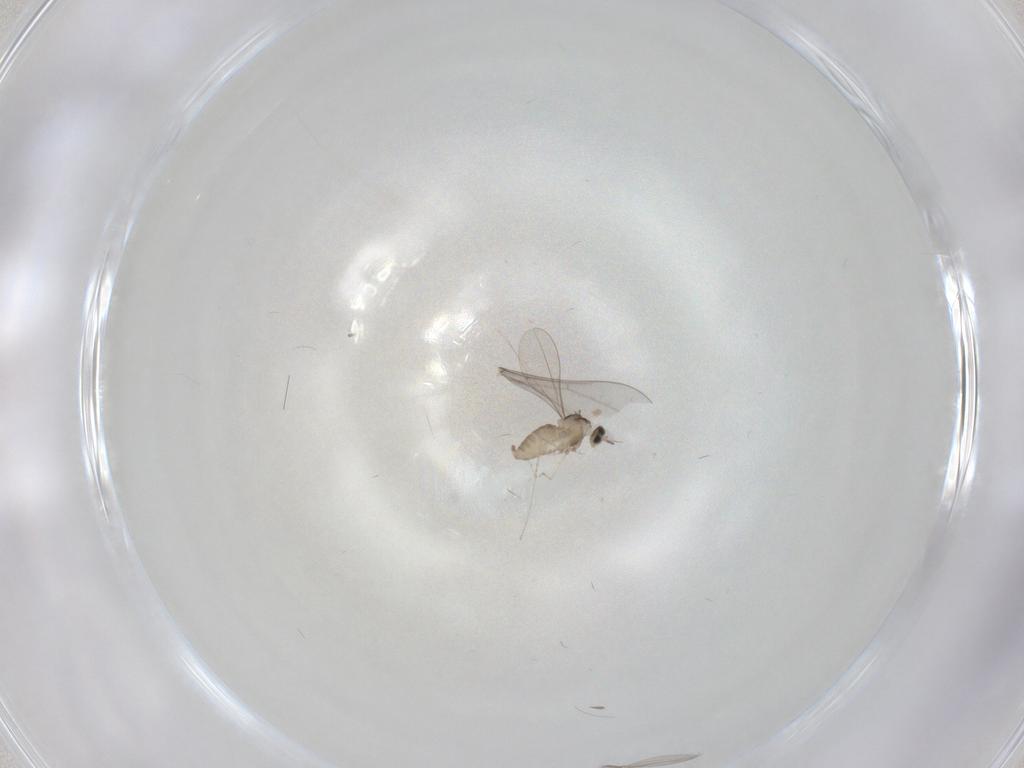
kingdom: Animalia
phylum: Arthropoda
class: Insecta
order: Diptera
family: Cecidomyiidae
